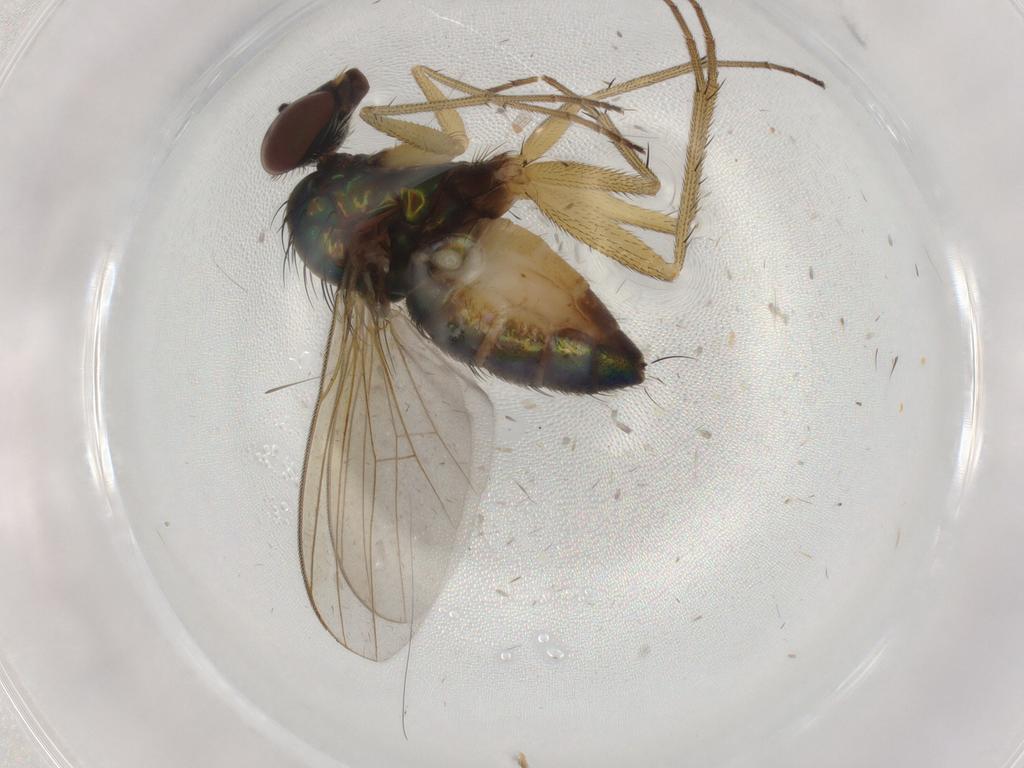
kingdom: Animalia
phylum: Arthropoda
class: Insecta
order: Diptera
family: Dolichopodidae
